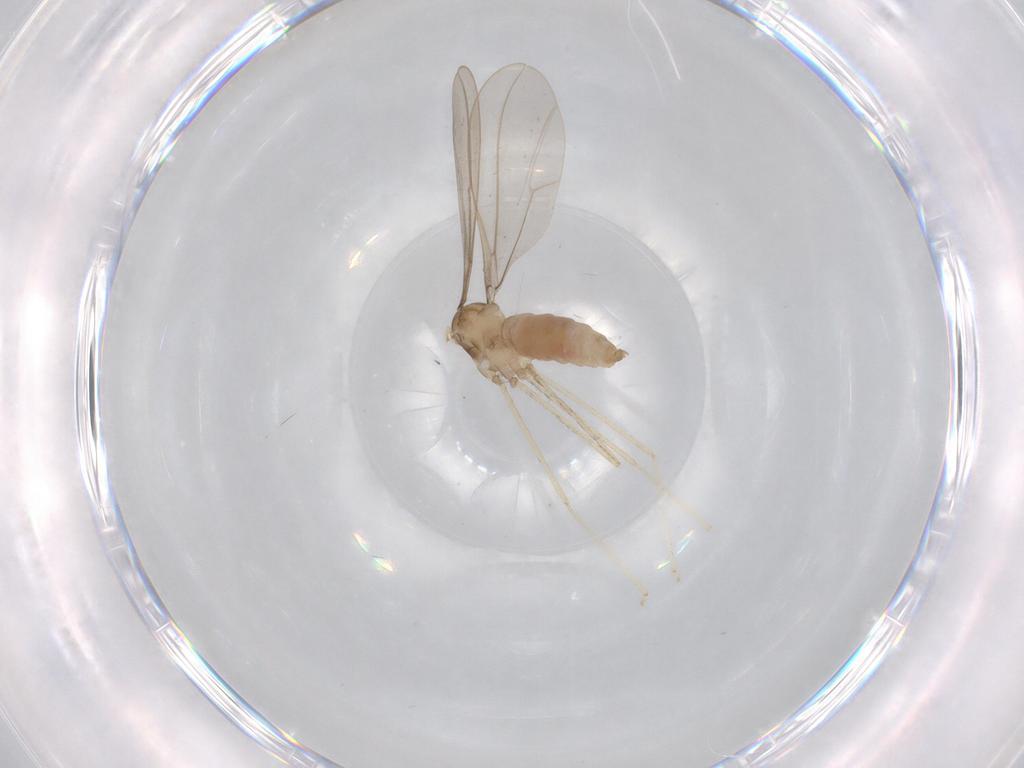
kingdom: Animalia
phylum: Arthropoda
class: Insecta
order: Diptera
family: Cecidomyiidae
